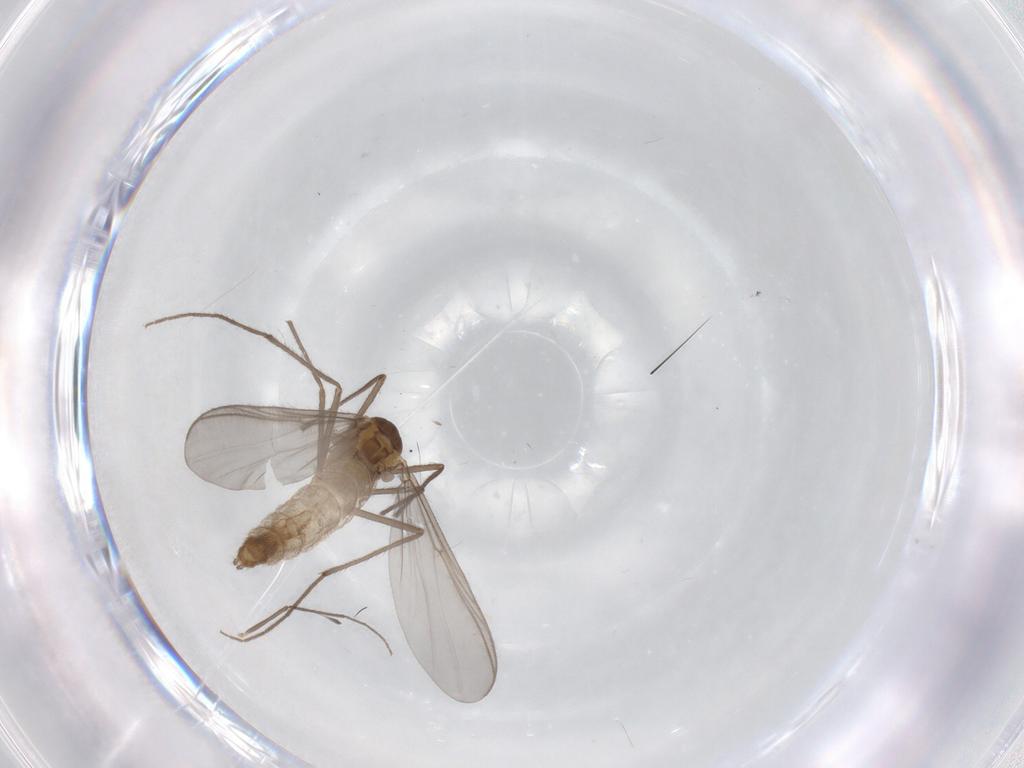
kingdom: Animalia
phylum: Arthropoda
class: Insecta
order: Diptera
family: Chironomidae
